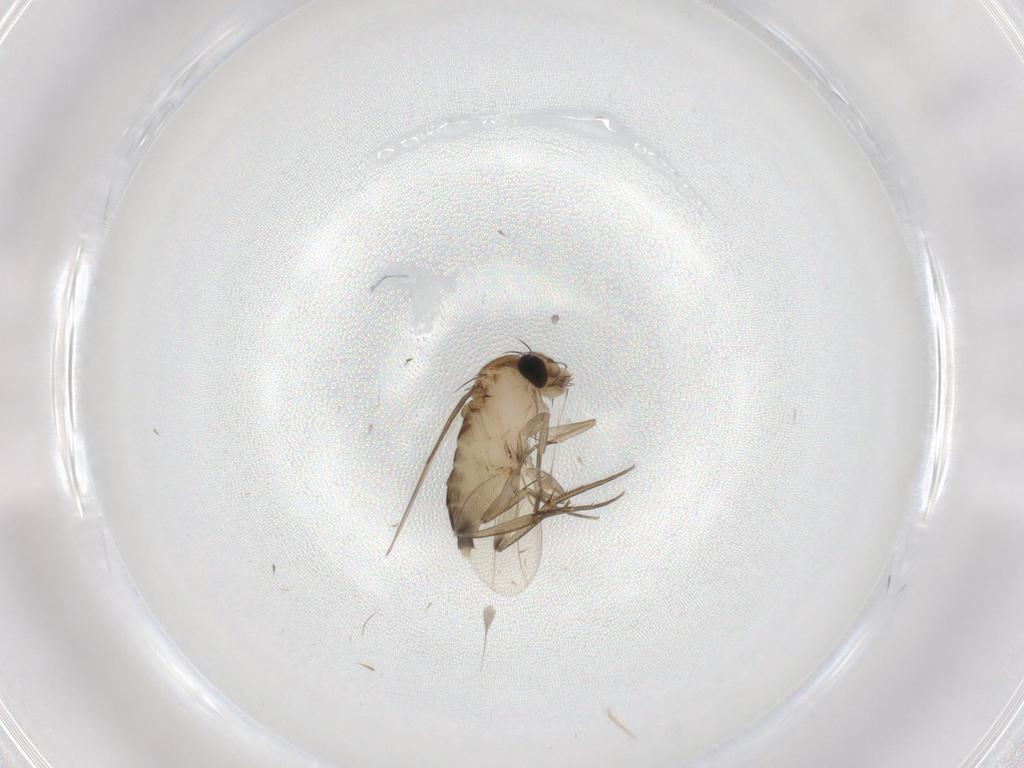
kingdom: Animalia
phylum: Arthropoda
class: Insecta
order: Diptera
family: Phoridae
